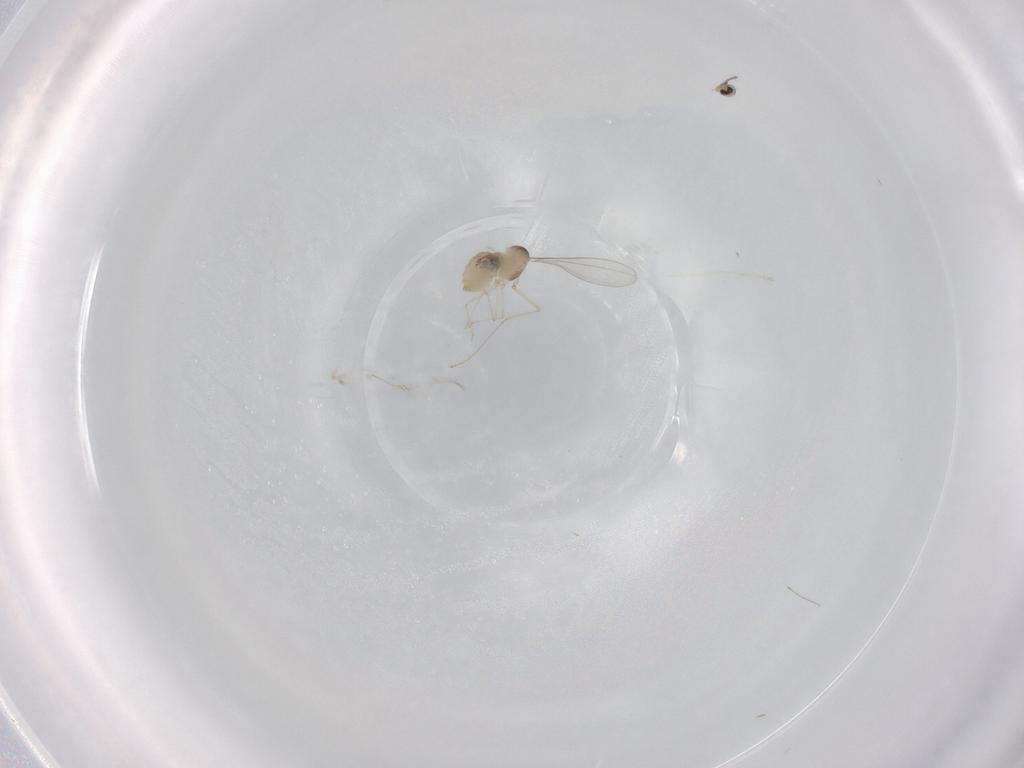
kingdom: Animalia
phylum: Arthropoda
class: Insecta
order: Diptera
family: Cecidomyiidae
